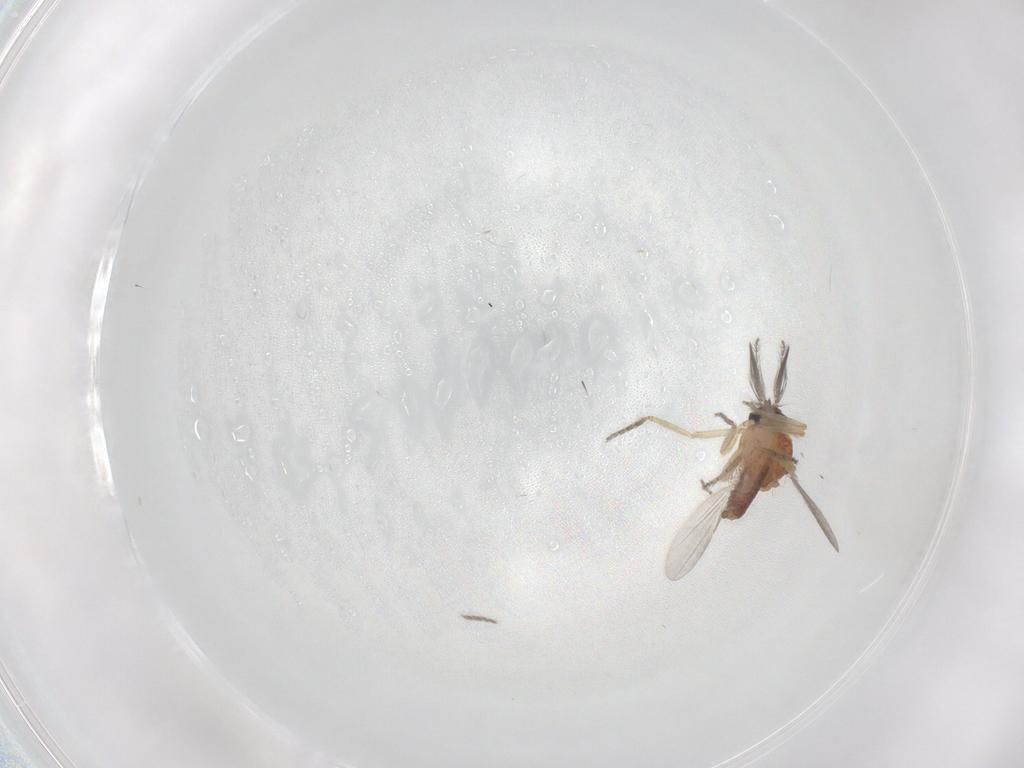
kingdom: Animalia
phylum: Arthropoda
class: Insecta
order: Diptera
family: Ceratopogonidae
